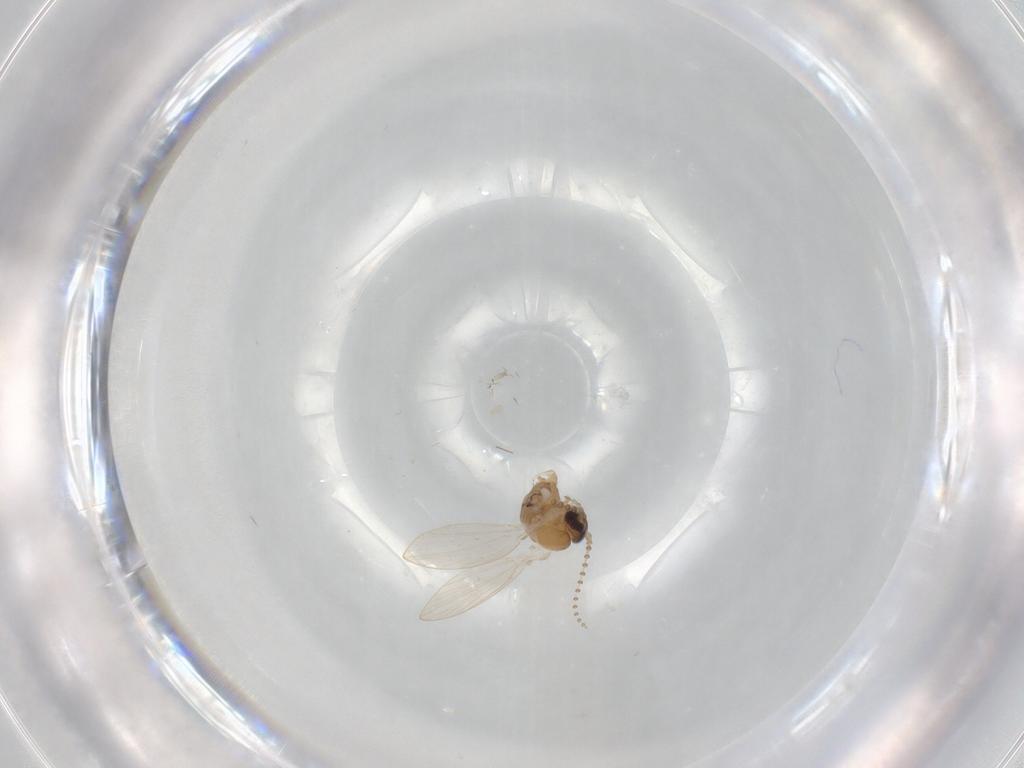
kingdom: Animalia
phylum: Arthropoda
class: Insecta
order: Diptera
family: Psychodidae
